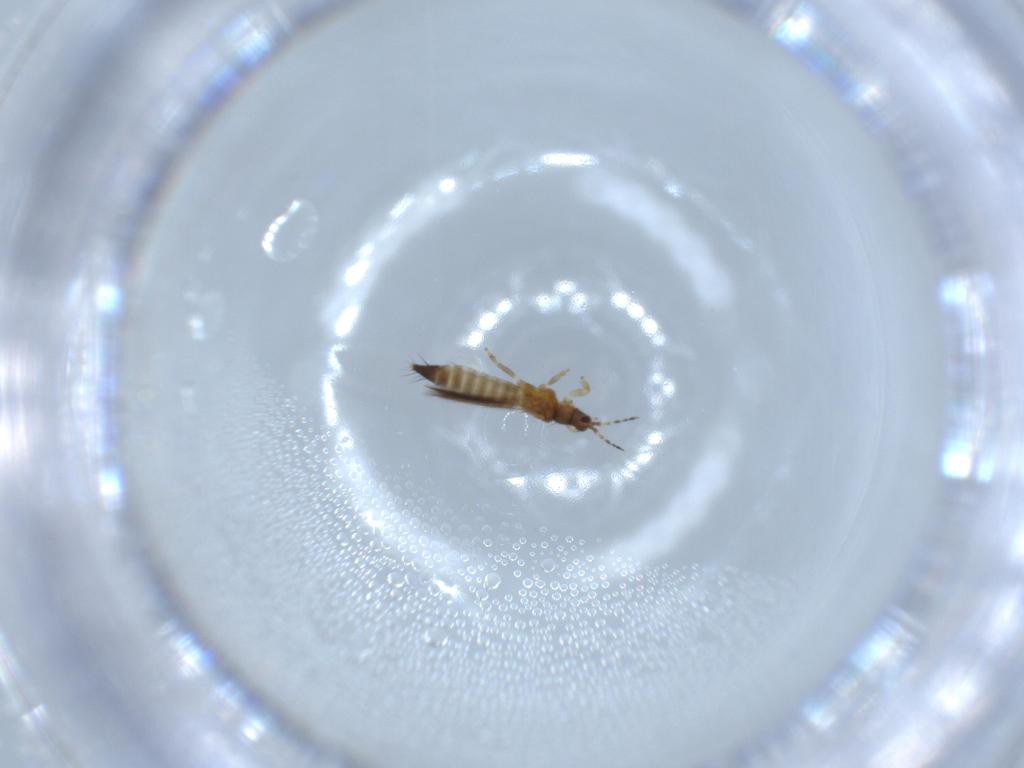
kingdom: Animalia
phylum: Arthropoda
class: Insecta
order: Thysanoptera
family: Thripidae
